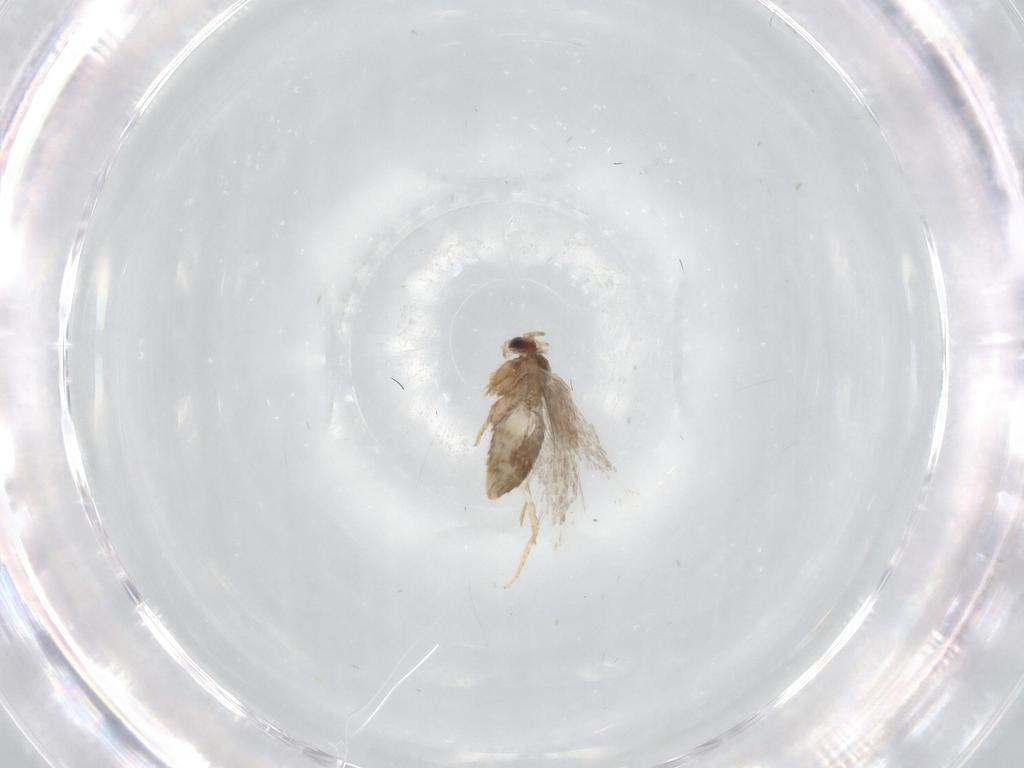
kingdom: Animalia
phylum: Arthropoda
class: Insecta
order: Lepidoptera
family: Nepticulidae
